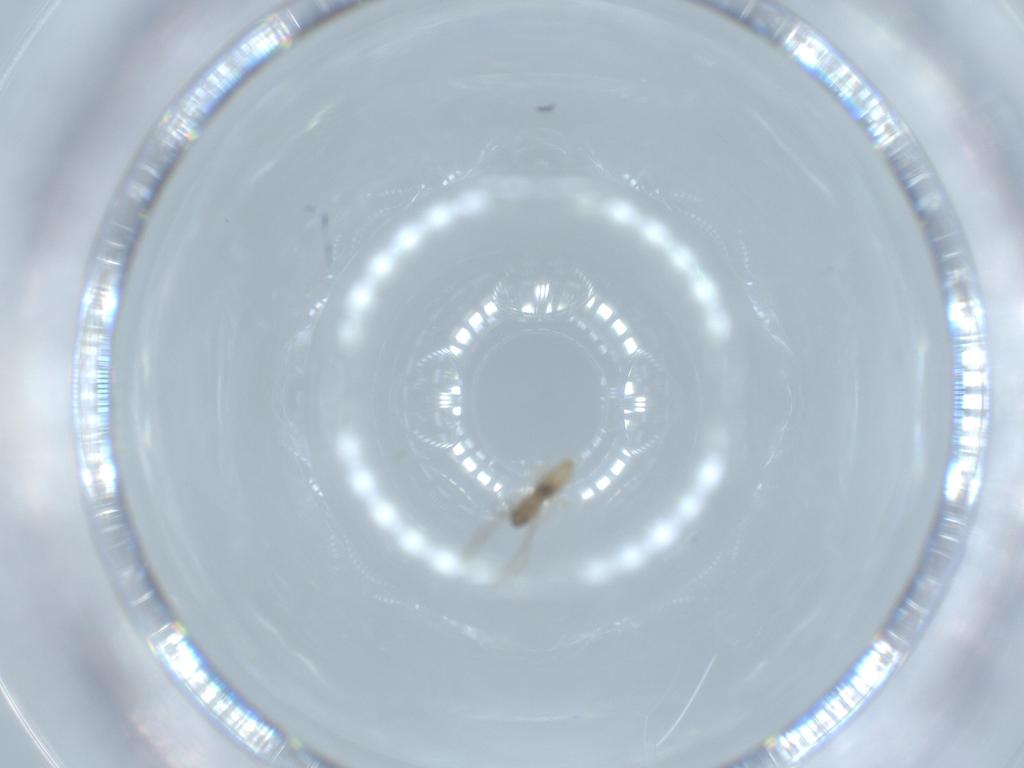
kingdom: Animalia
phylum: Arthropoda
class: Insecta
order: Diptera
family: Cecidomyiidae
